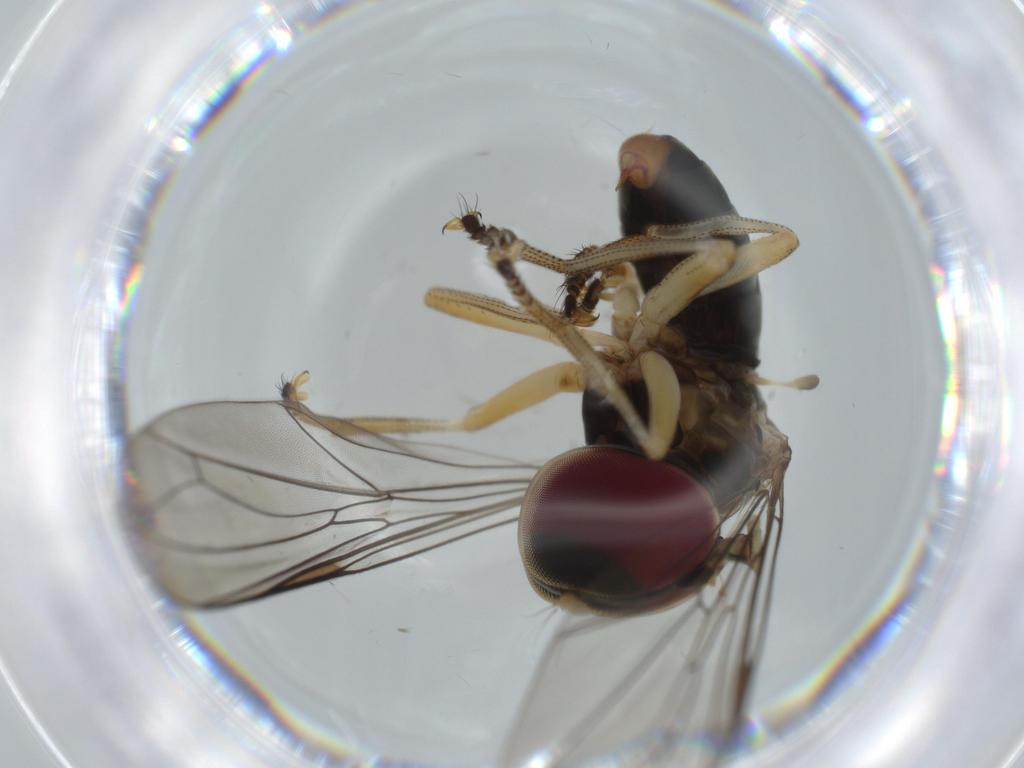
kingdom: Animalia
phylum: Arthropoda
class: Insecta
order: Diptera
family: Pipunculidae
